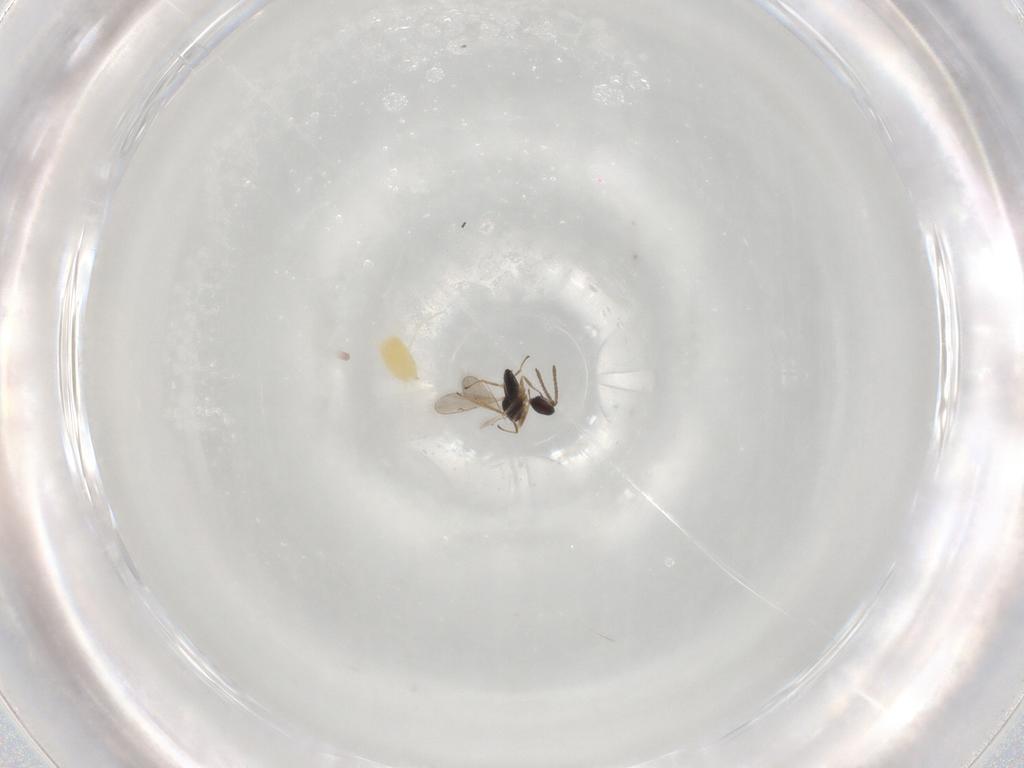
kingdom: Animalia
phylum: Arthropoda
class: Insecta
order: Hymenoptera
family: Tetracampidae
